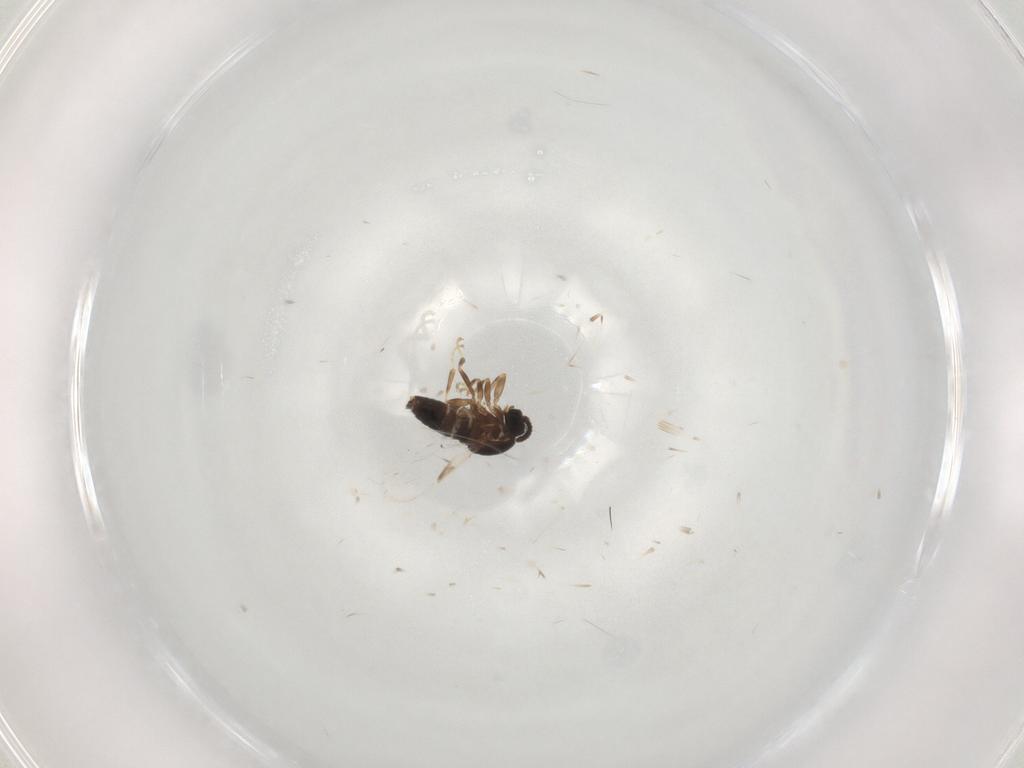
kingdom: Animalia
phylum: Arthropoda
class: Insecta
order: Diptera
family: Scatopsidae
